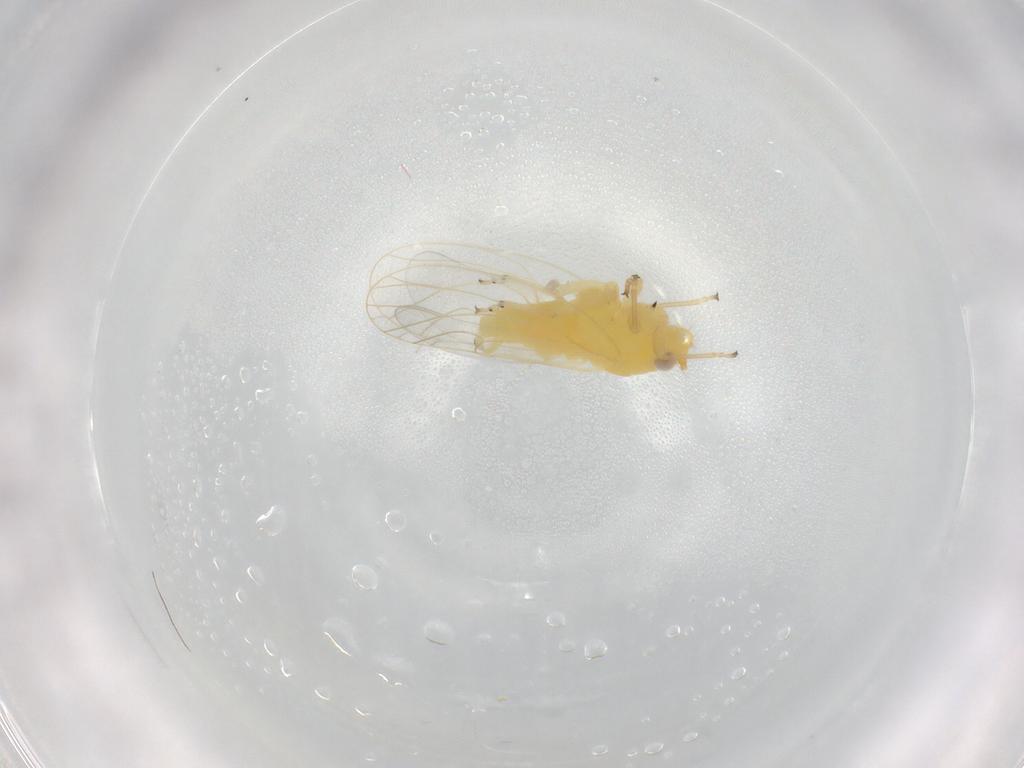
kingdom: Animalia
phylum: Arthropoda
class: Insecta
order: Hemiptera
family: Psyllidae
